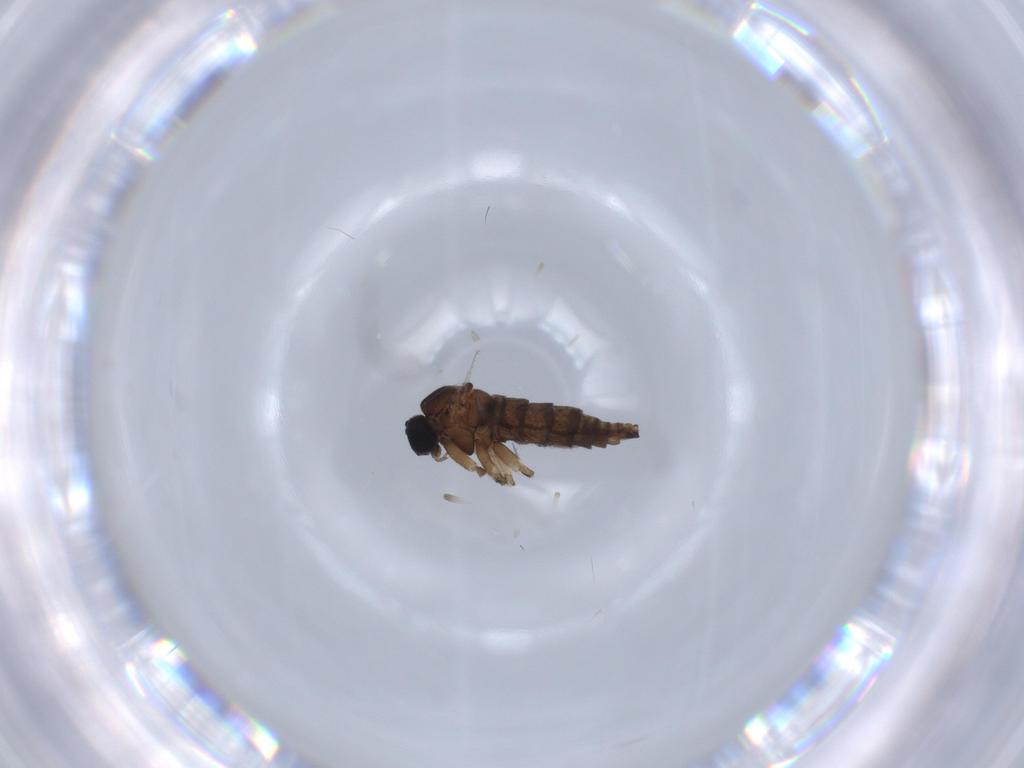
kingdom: Animalia
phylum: Arthropoda
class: Insecta
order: Diptera
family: Sciaridae
